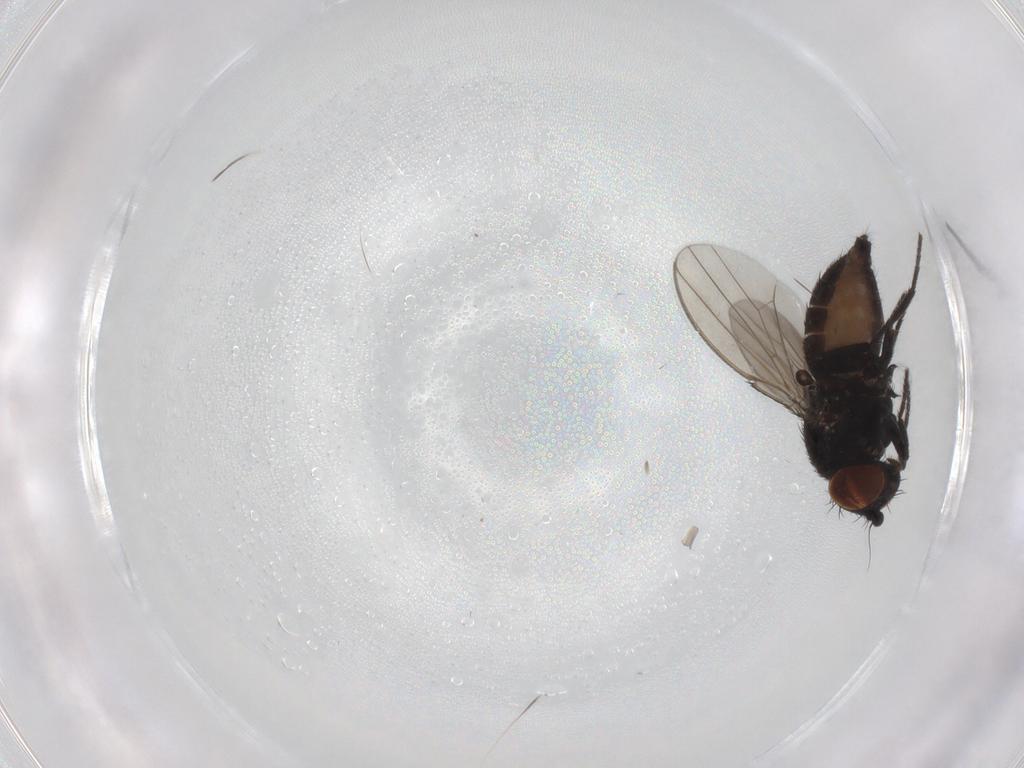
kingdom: Animalia
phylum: Arthropoda
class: Insecta
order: Diptera
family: Milichiidae
